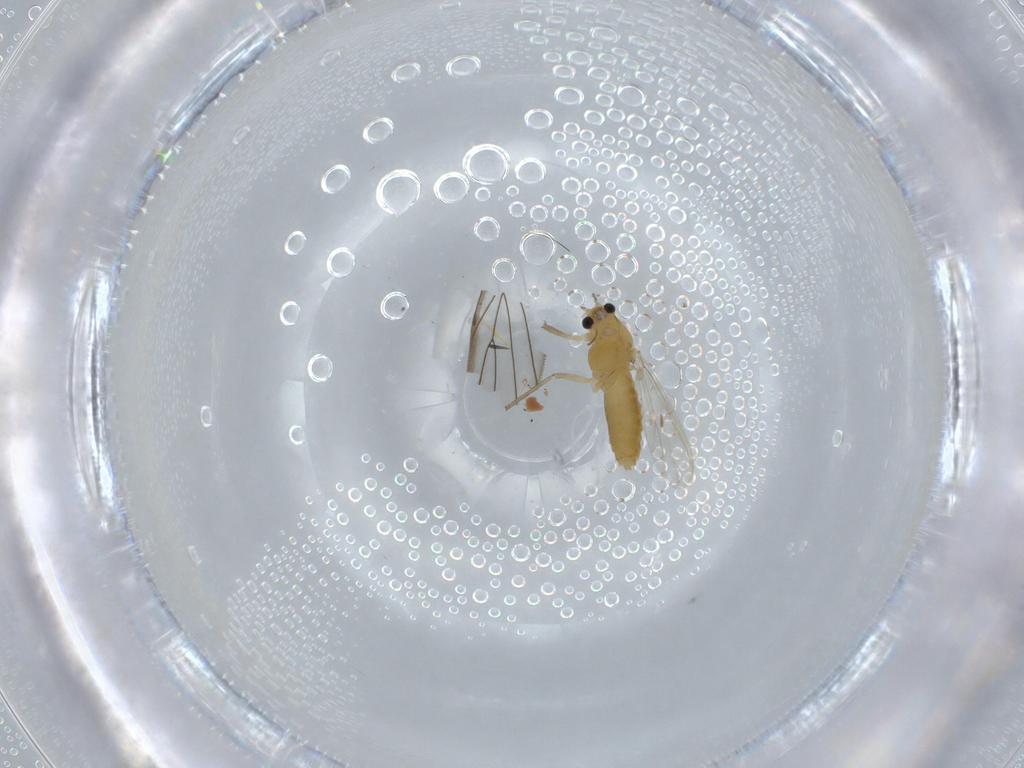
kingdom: Animalia
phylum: Arthropoda
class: Insecta
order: Diptera
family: Chironomidae
